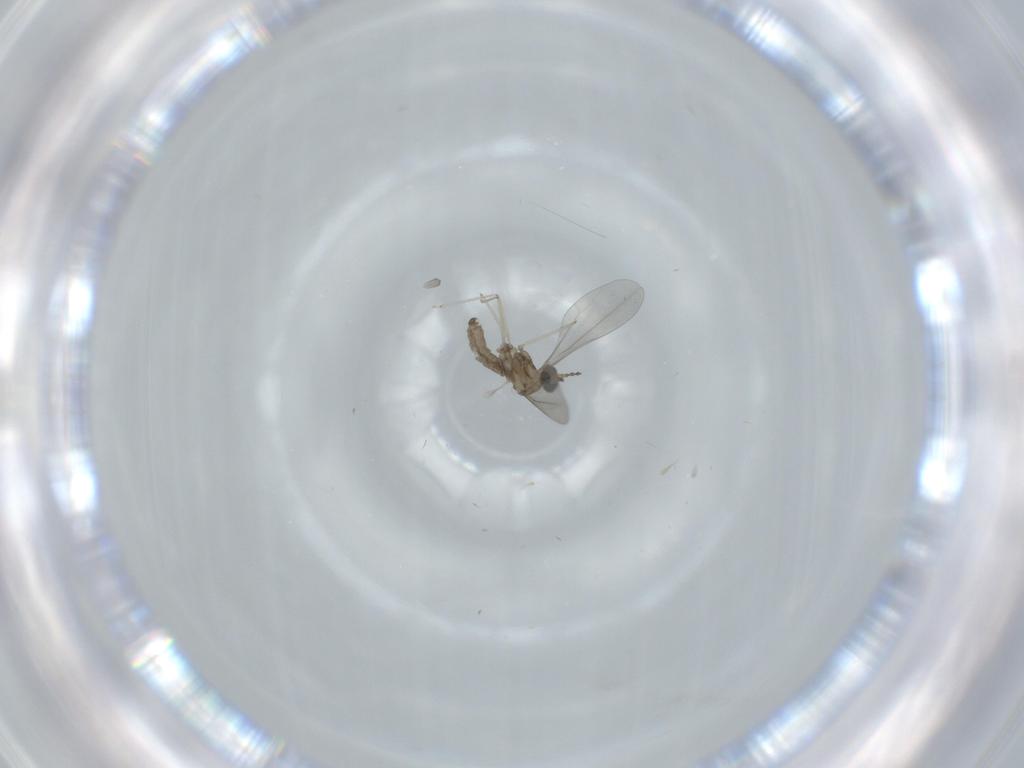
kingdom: Animalia
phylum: Arthropoda
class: Insecta
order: Diptera
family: Cecidomyiidae
